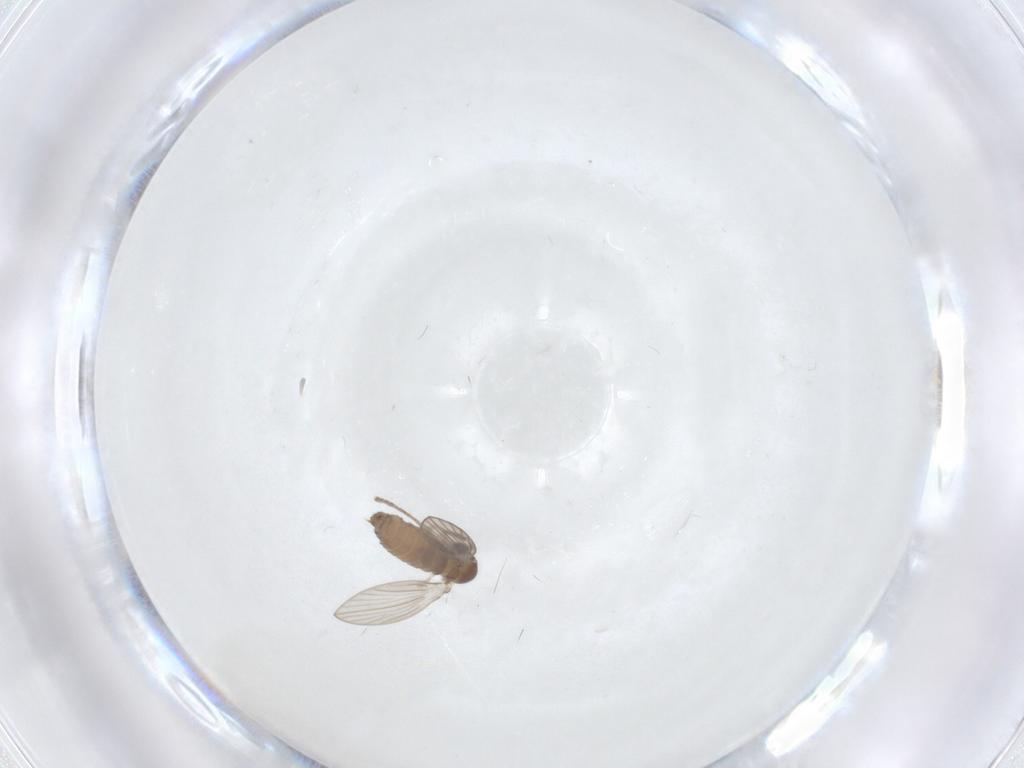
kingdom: Animalia
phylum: Arthropoda
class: Insecta
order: Diptera
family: Psychodidae
